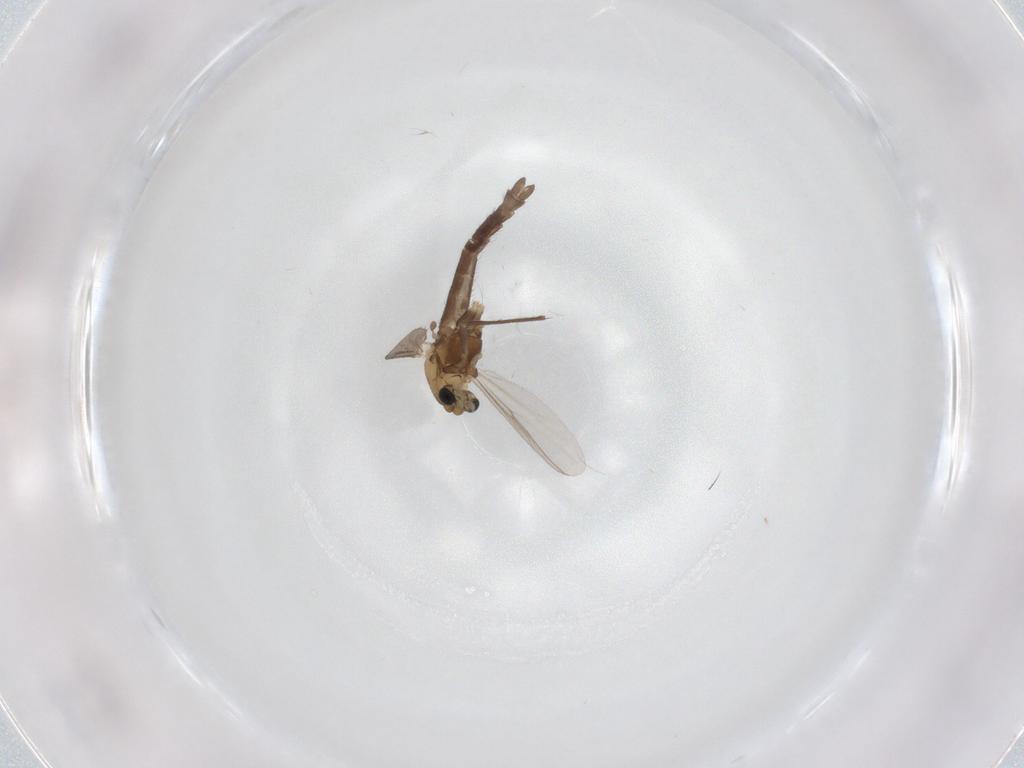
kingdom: Animalia
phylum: Arthropoda
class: Insecta
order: Diptera
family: Chironomidae
